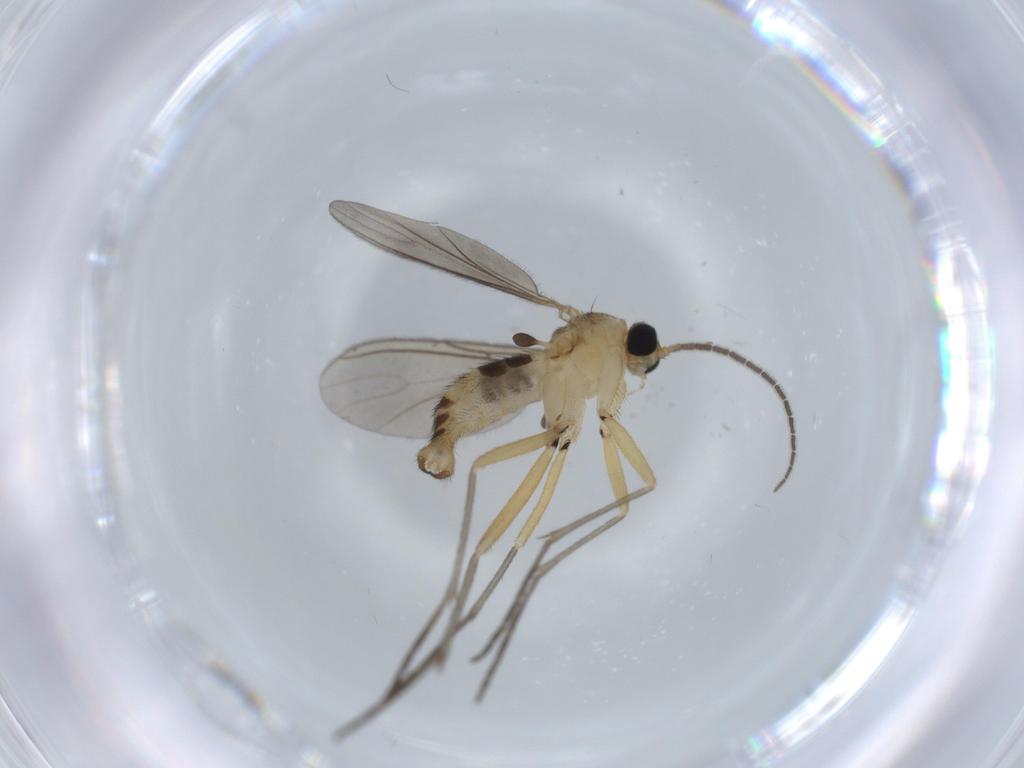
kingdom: Animalia
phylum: Arthropoda
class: Insecta
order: Diptera
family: Sciaridae
